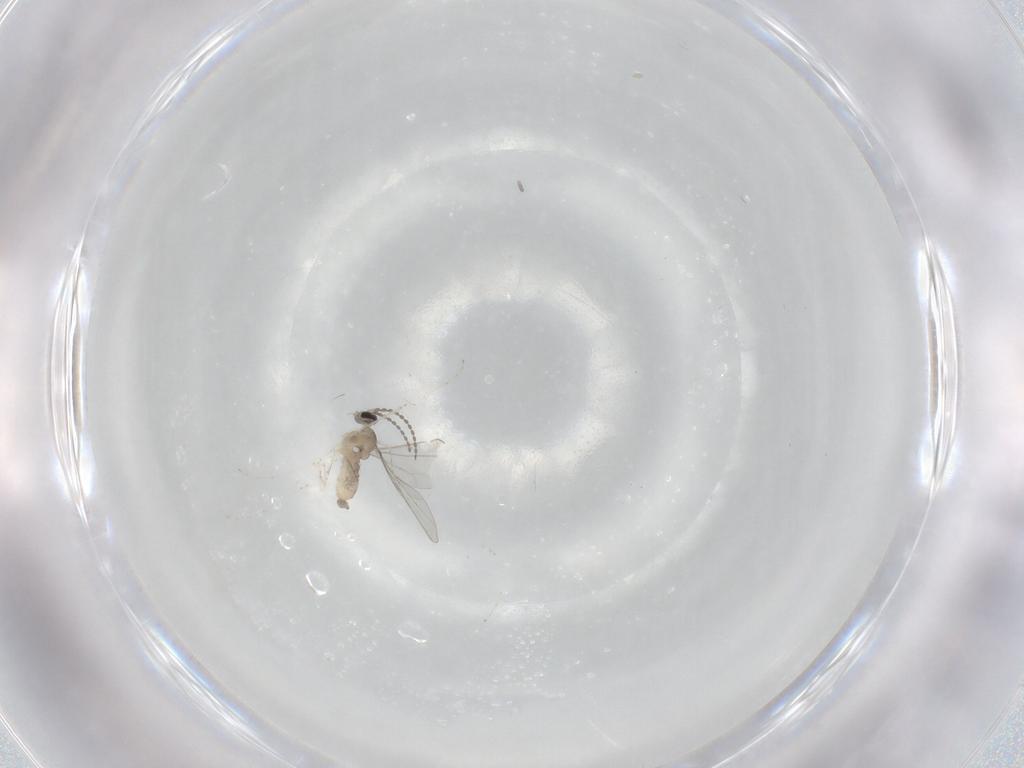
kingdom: Animalia
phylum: Arthropoda
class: Insecta
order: Diptera
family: Cecidomyiidae
